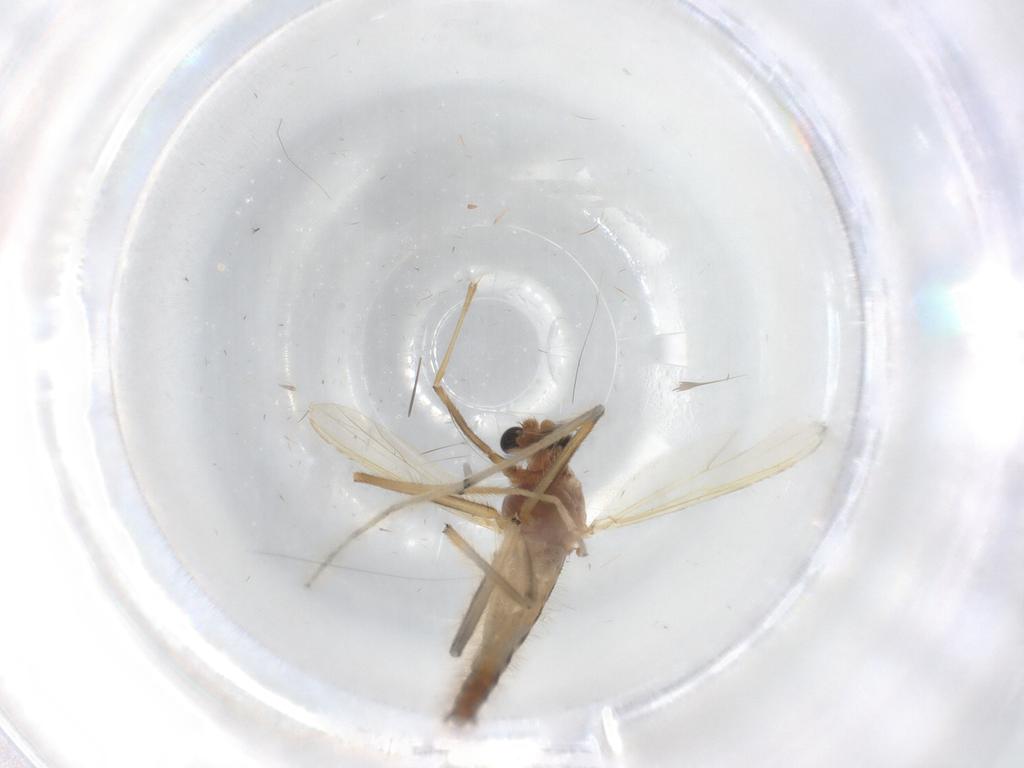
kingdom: Animalia
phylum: Arthropoda
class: Insecta
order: Diptera
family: Chironomidae
